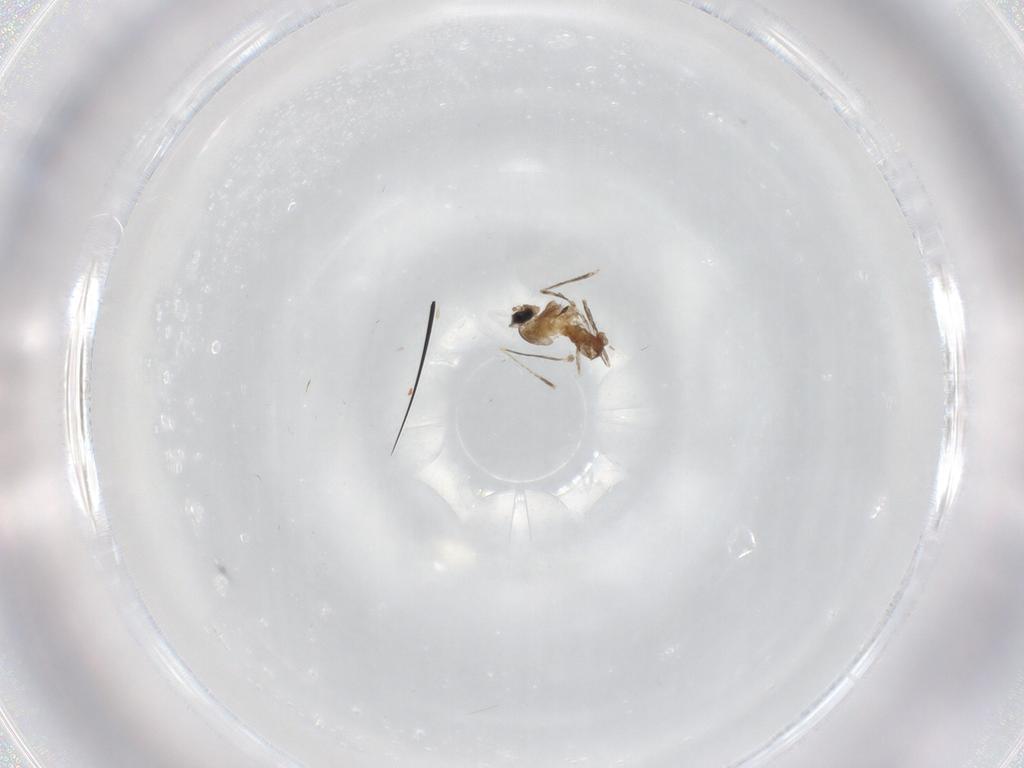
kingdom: Animalia
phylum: Arthropoda
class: Insecta
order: Diptera
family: Cecidomyiidae
